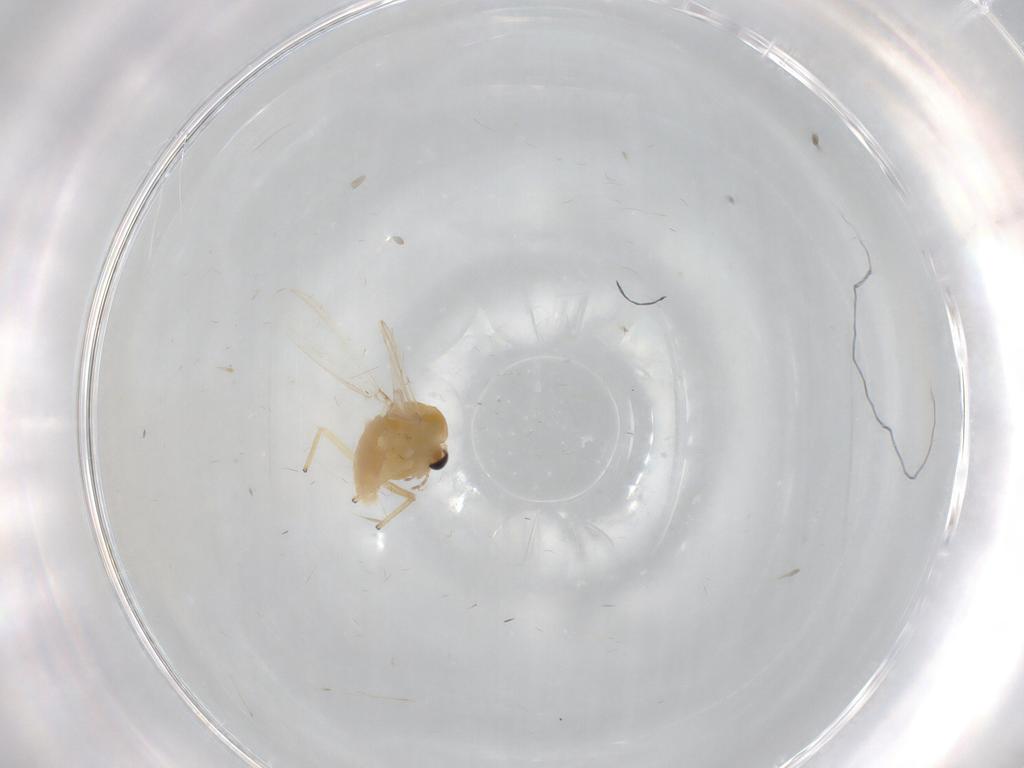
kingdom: Animalia
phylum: Arthropoda
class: Insecta
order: Diptera
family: Chironomidae
